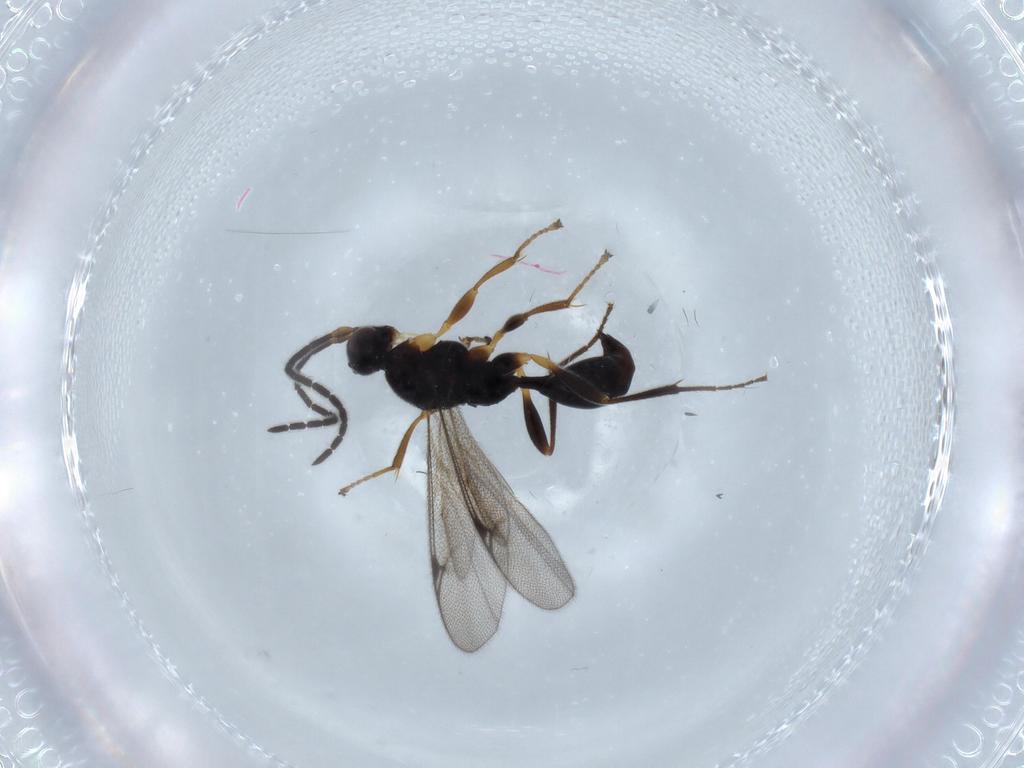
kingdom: Animalia
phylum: Arthropoda
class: Insecta
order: Hymenoptera
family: Proctotrupidae
